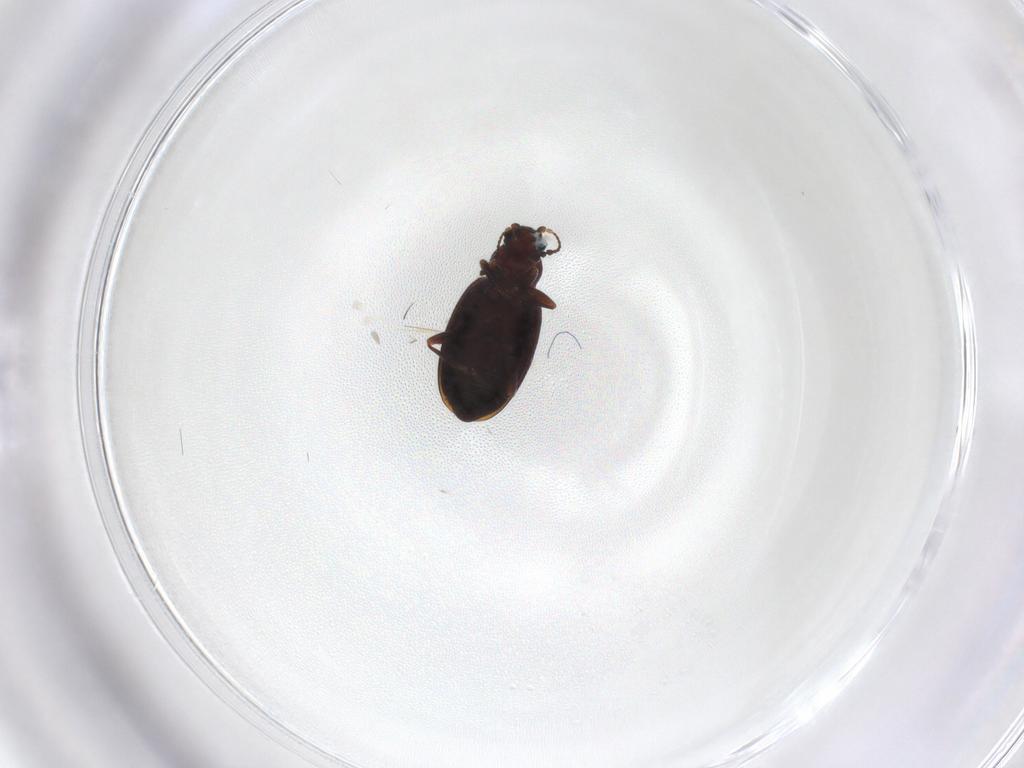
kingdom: Animalia
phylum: Arthropoda
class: Insecta
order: Coleoptera
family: Latridiidae
